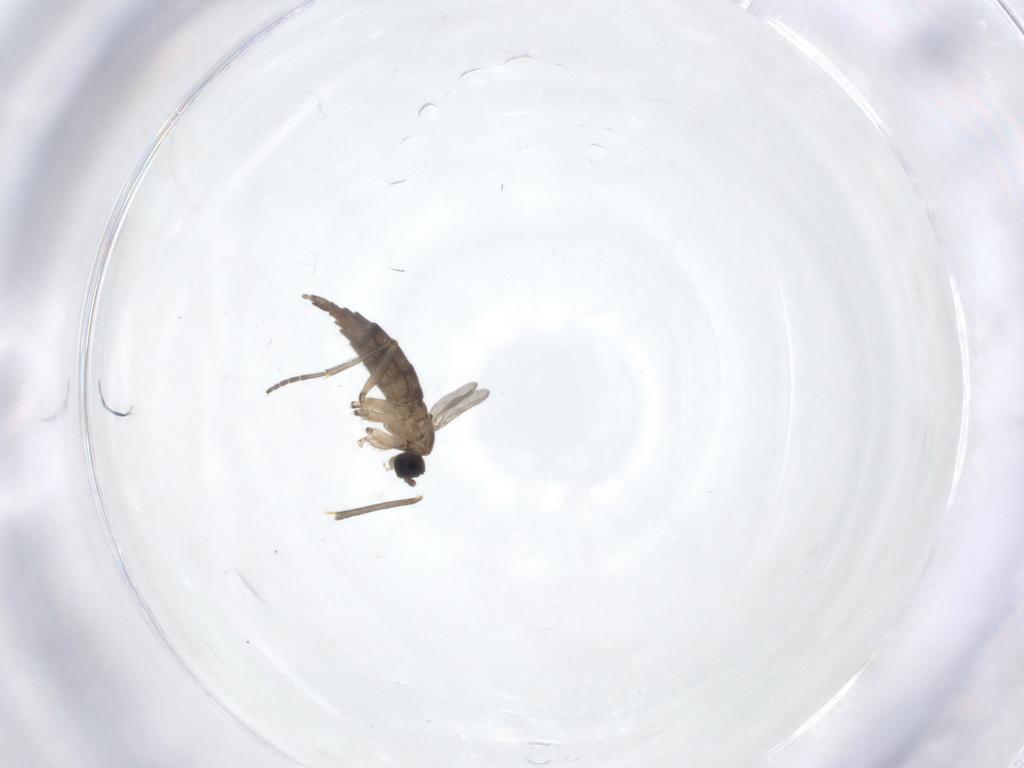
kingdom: Animalia
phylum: Arthropoda
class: Insecta
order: Diptera
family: Sciaridae
